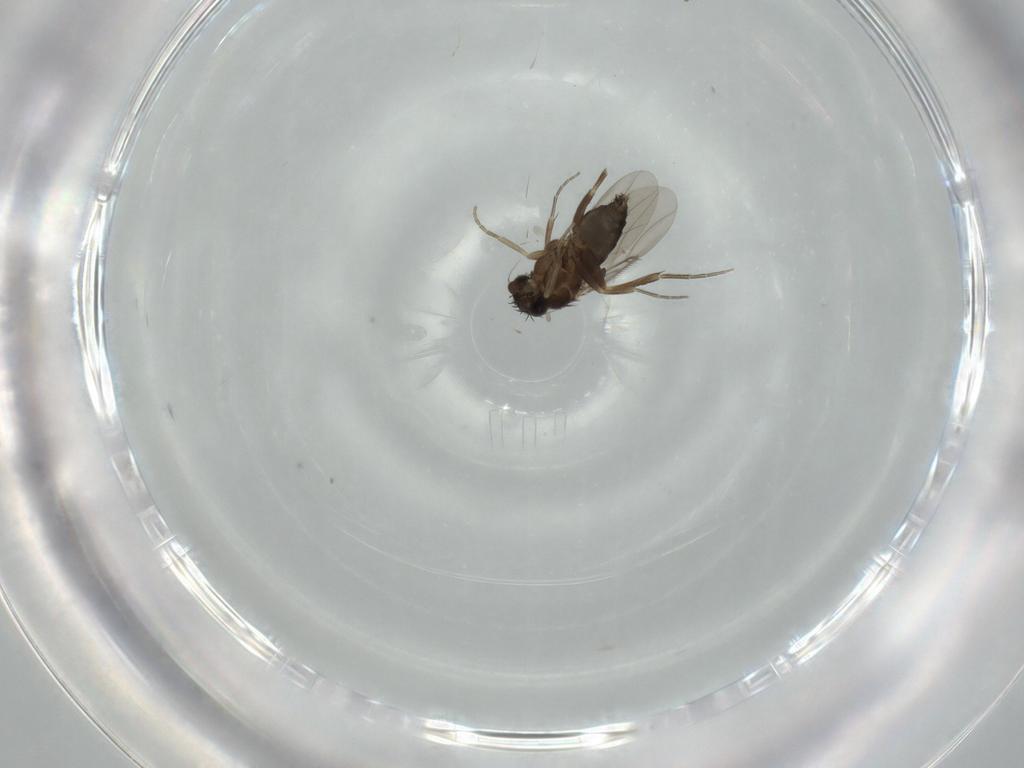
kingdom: Animalia
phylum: Arthropoda
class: Insecta
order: Diptera
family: Phoridae
